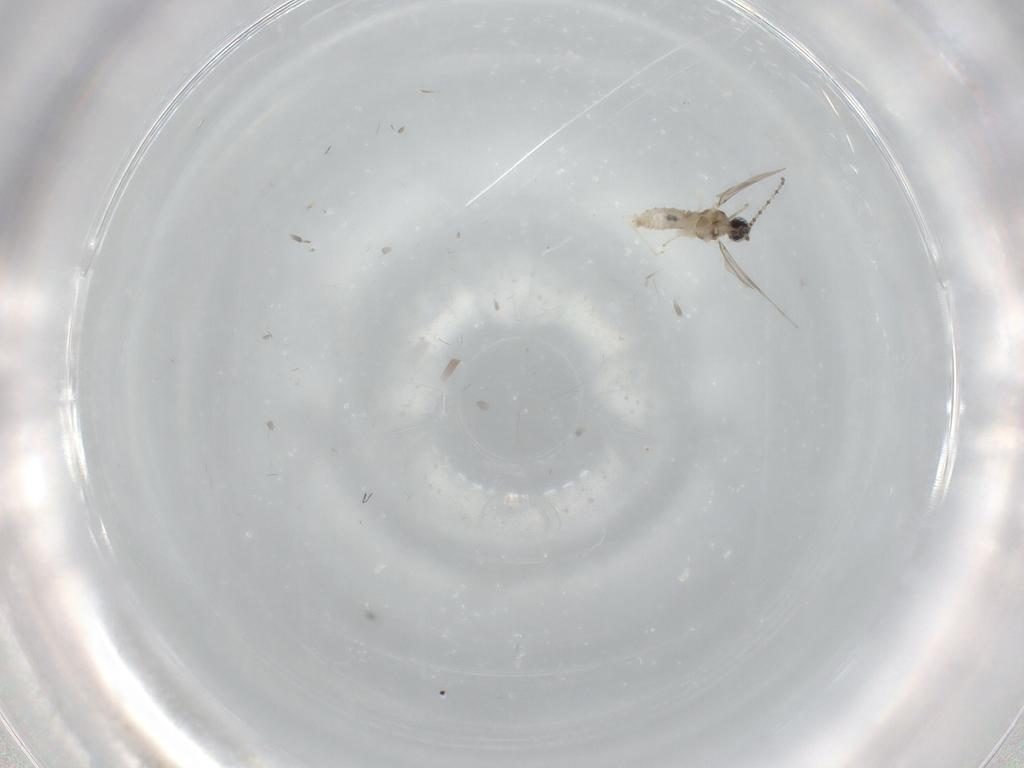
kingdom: Animalia
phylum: Arthropoda
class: Insecta
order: Diptera
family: Cecidomyiidae
